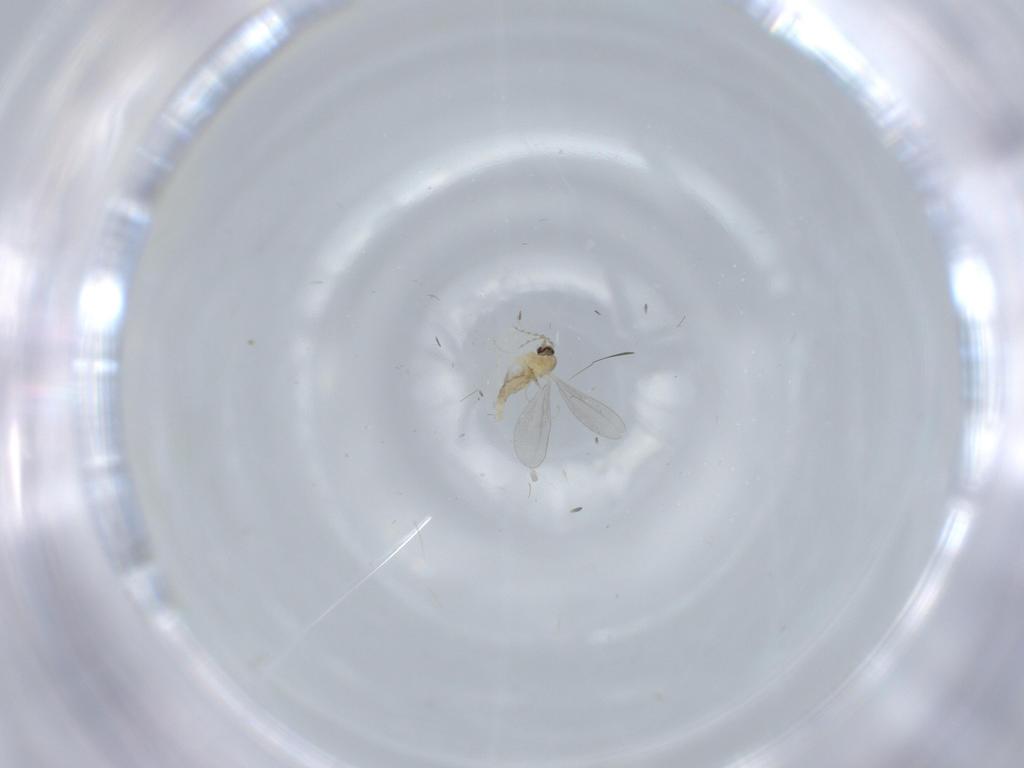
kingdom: Animalia
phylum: Arthropoda
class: Insecta
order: Diptera
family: Cecidomyiidae
